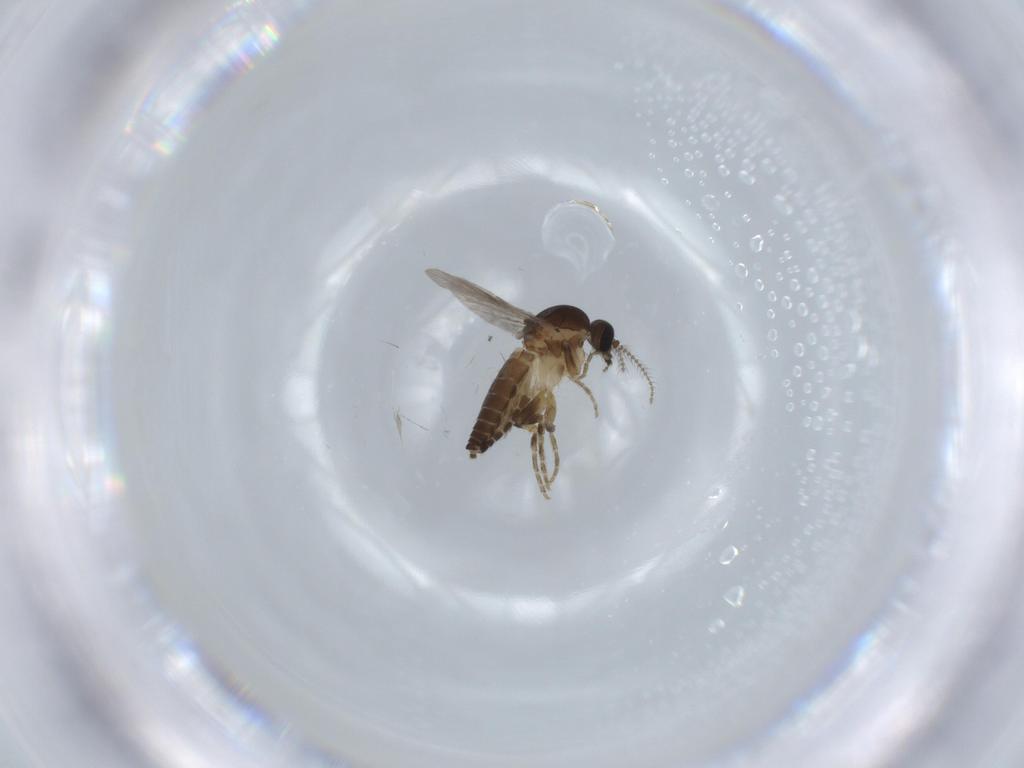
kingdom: Animalia
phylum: Arthropoda
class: Insecta
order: Diptera
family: Ceratopogonidae
